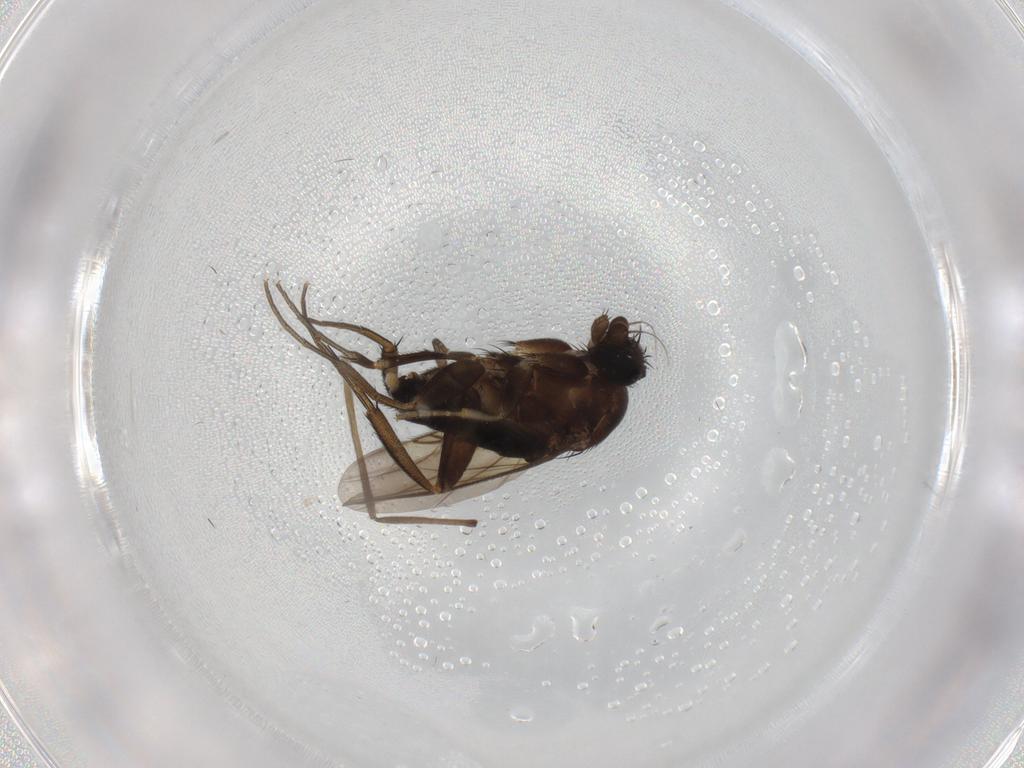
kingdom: Animalia
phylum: Arthropoda
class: Insecta
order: Diptera
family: Phoridae
